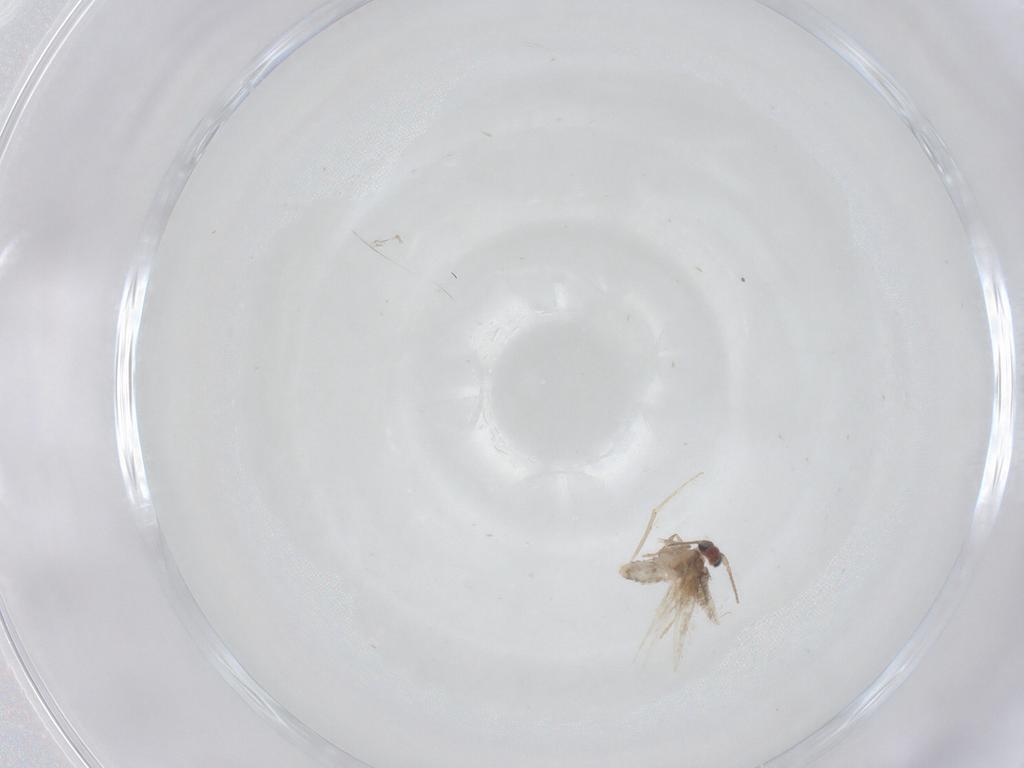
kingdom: Animalia
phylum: Arthropoda
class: Insecta
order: Lepidoptera
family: Nepticulidae
